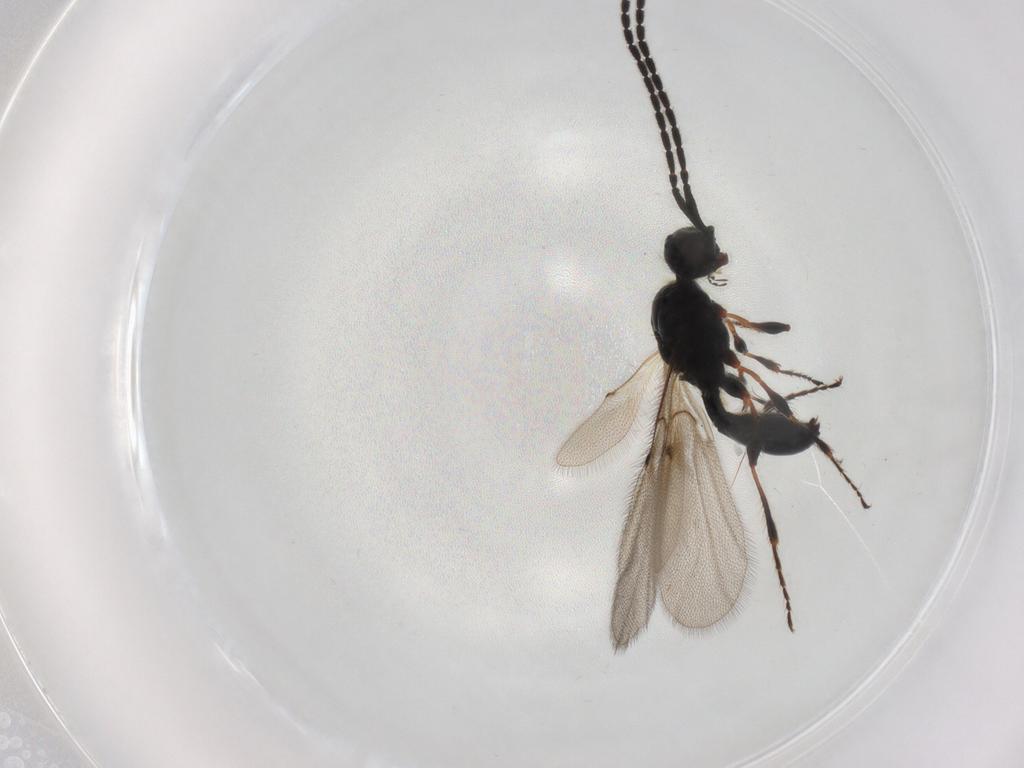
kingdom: Animalia
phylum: Arthropoda
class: Insecta
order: Hymenoptera
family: Diapriidae
